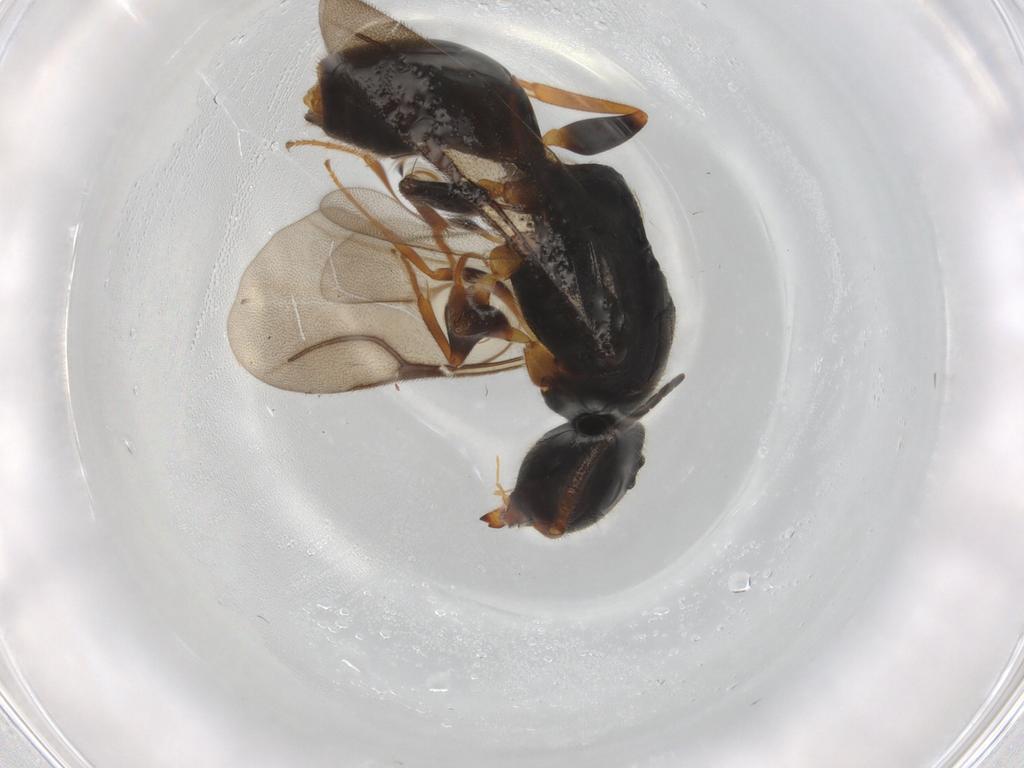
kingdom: Animalia
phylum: Arthropoda
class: Insecta
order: Hymenoptera
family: Bethylidae
